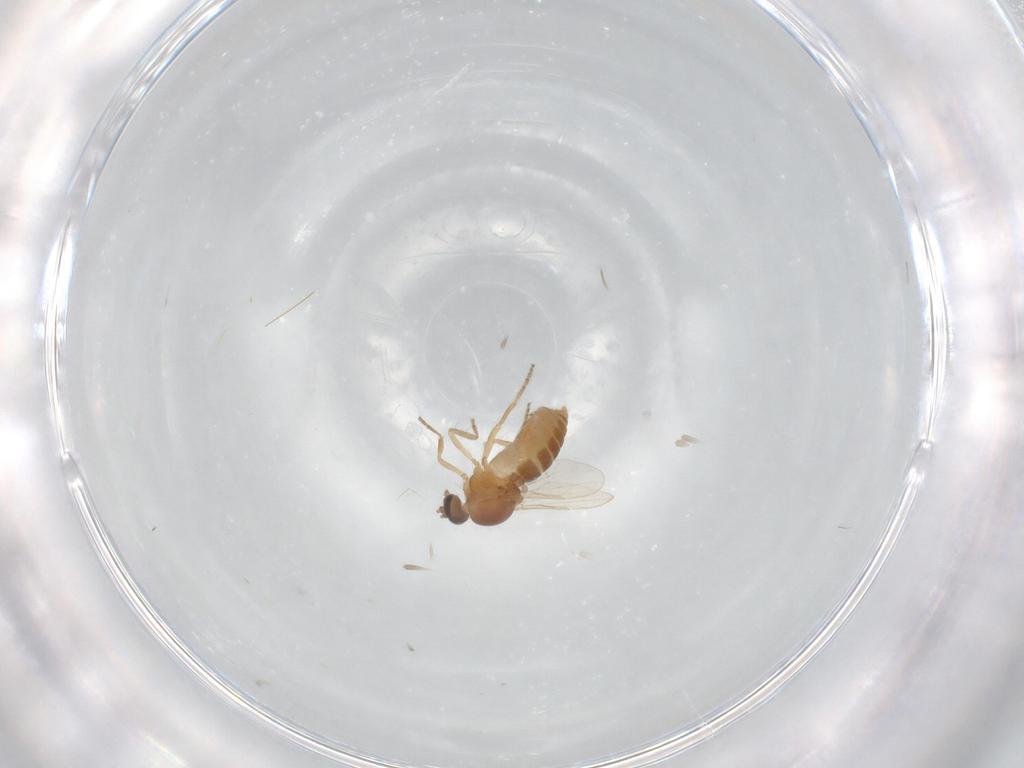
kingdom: Animalia
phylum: Arthropoda
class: Insecta
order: Diptera
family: Ceratopogonidae
